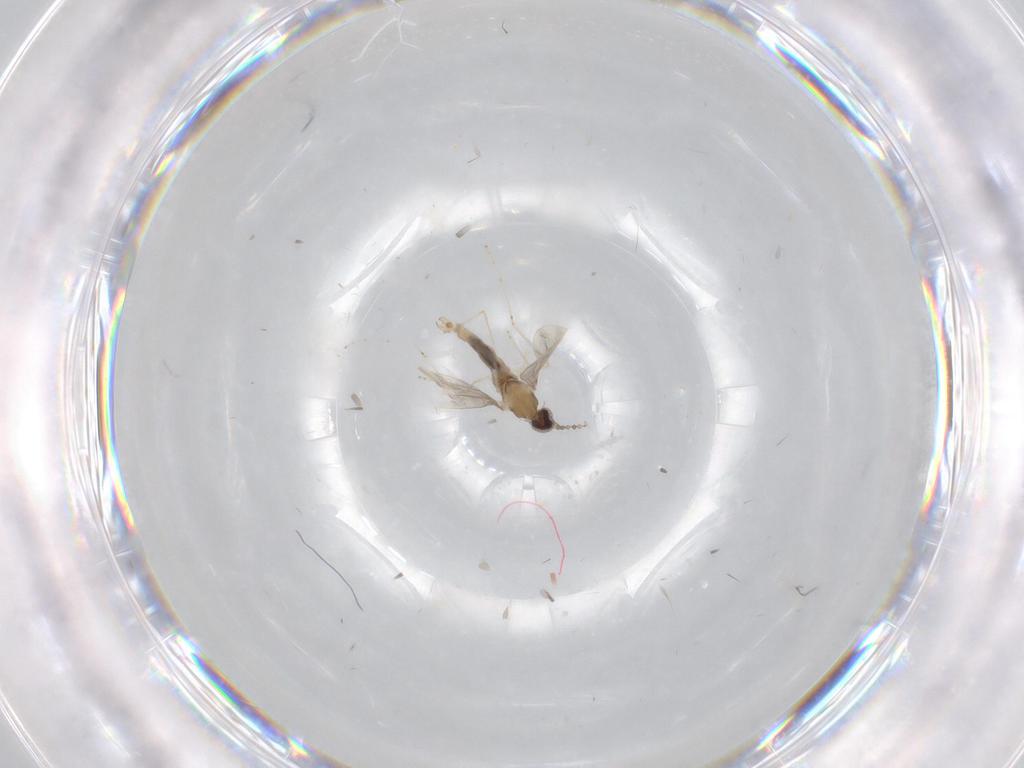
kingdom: Animalia
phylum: Arthropoda
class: Insecta
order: Diptera
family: Cecidomyiidae
